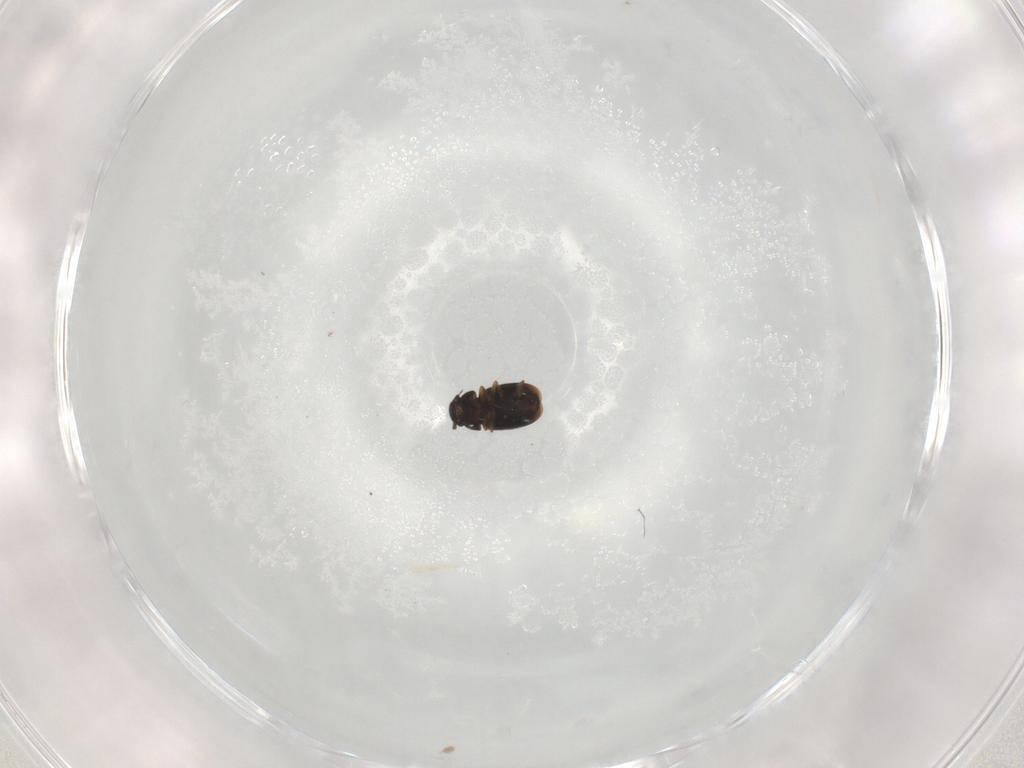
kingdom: Animalia
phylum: Arthropoda
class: Insecta
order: Coleoptera
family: Ptiliidae
